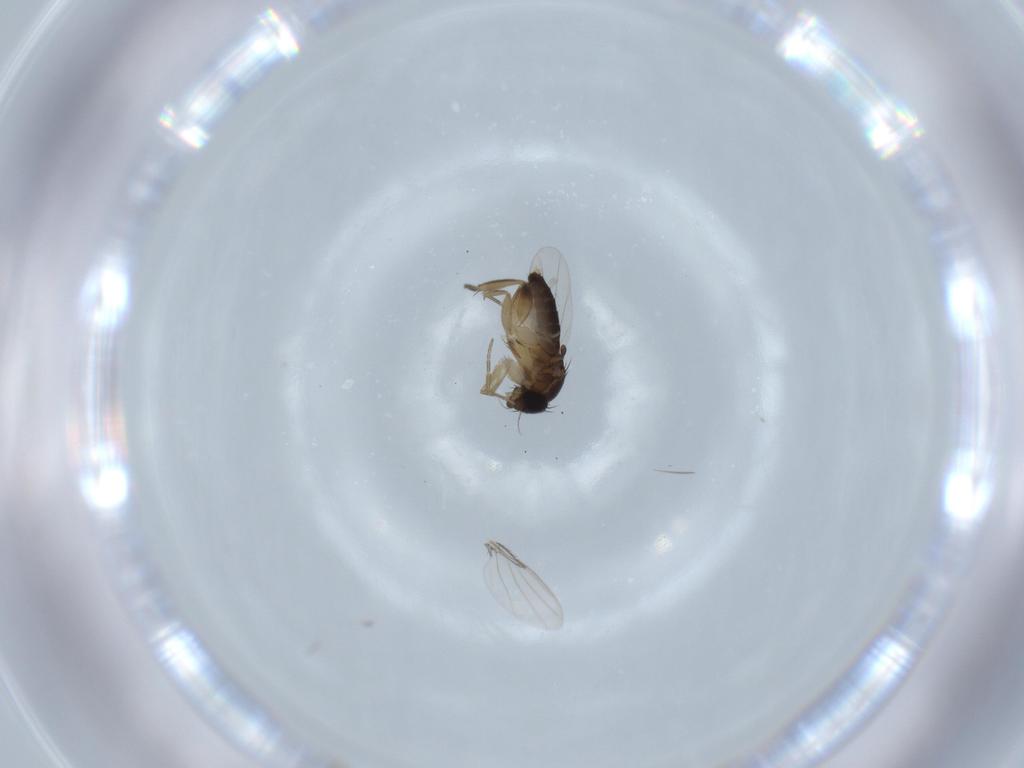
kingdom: Animalia
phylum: Arthropoda
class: Insecta
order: Diptera
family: Phoridae
